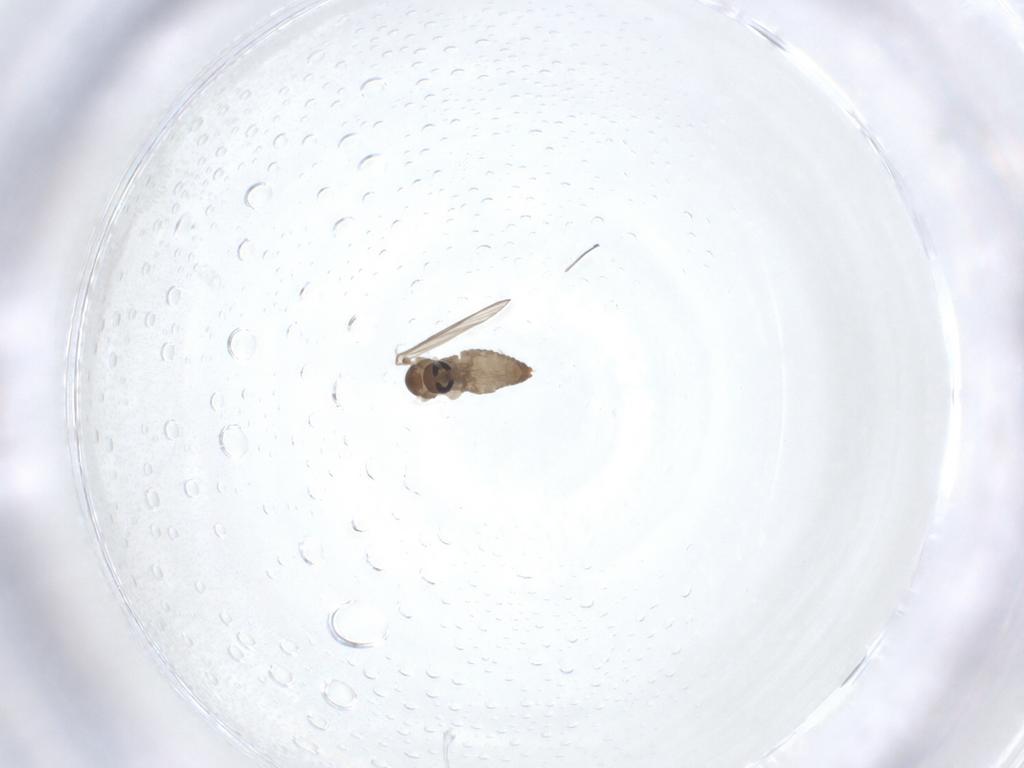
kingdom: Animalia
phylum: Arthropoda
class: Insecta
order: Diptera
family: Psychodidae
